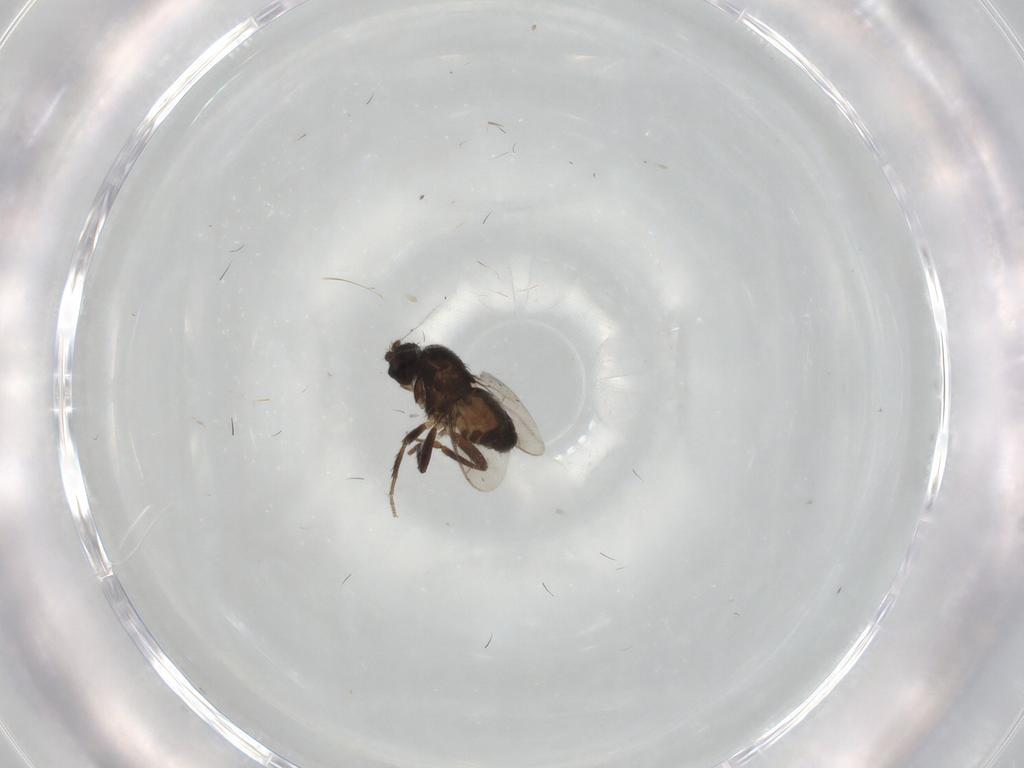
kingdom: Animalia
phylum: Arthropoda
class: Insecta
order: Diptera
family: Sphaeroceridae
